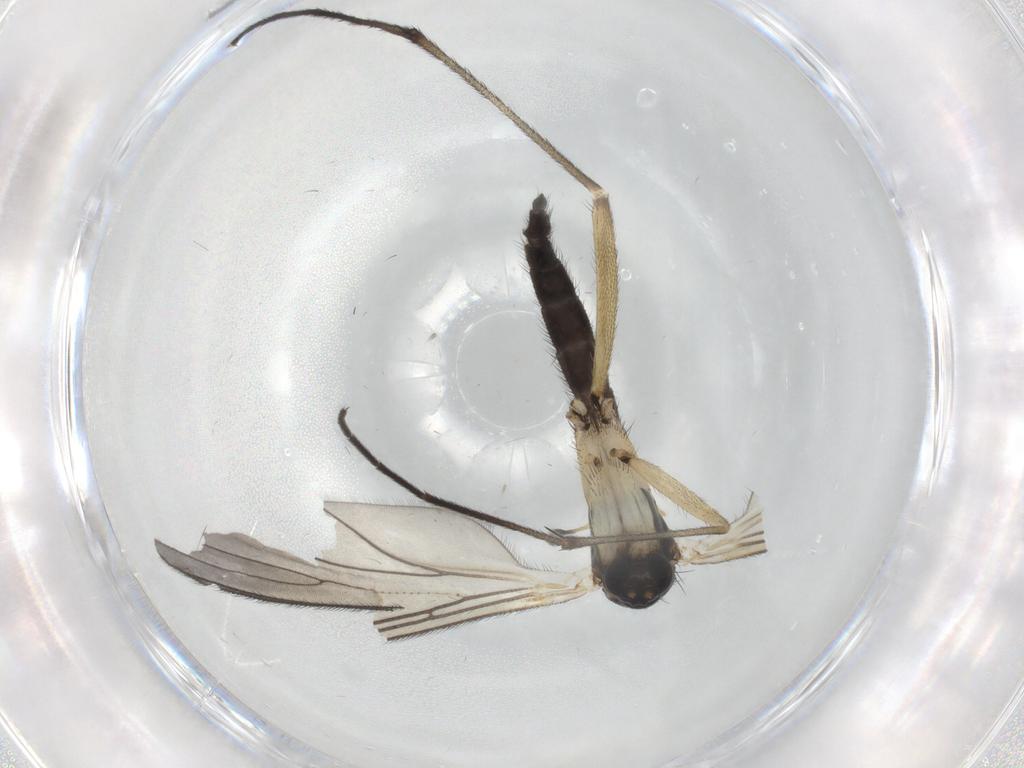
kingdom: Animalia
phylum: Arthropoda
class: Insecta
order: Diptera
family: Sciaridae
